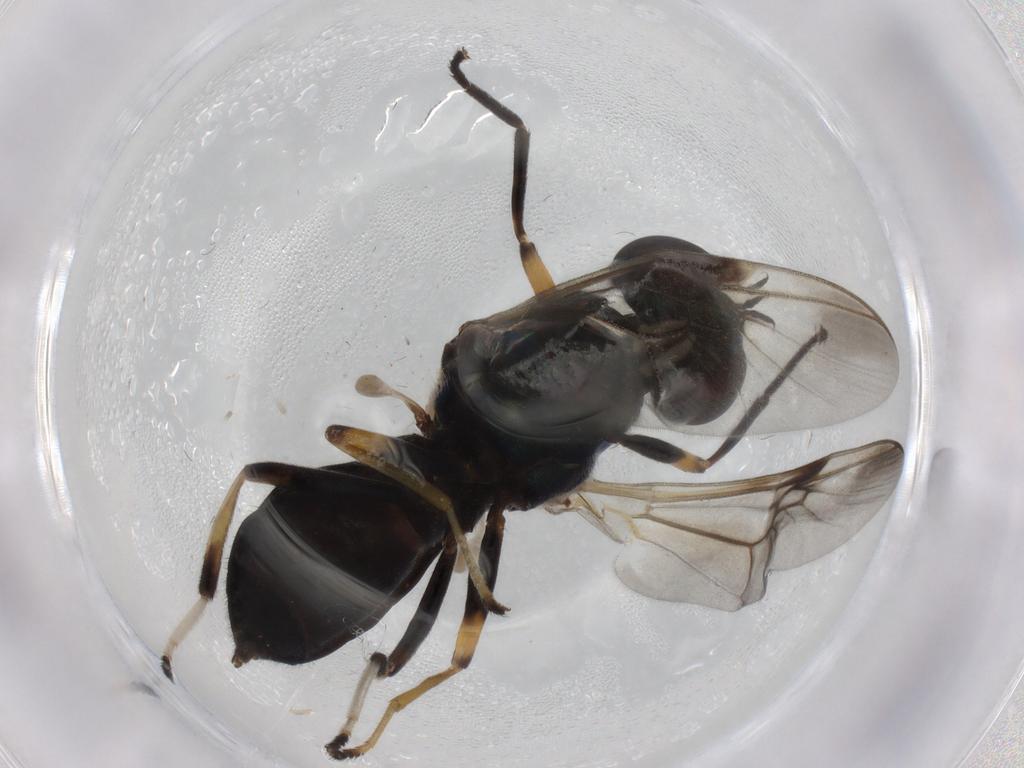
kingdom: Animalia
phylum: Arthropoda
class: Insecta
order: Diptera
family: Stratiomyidae
